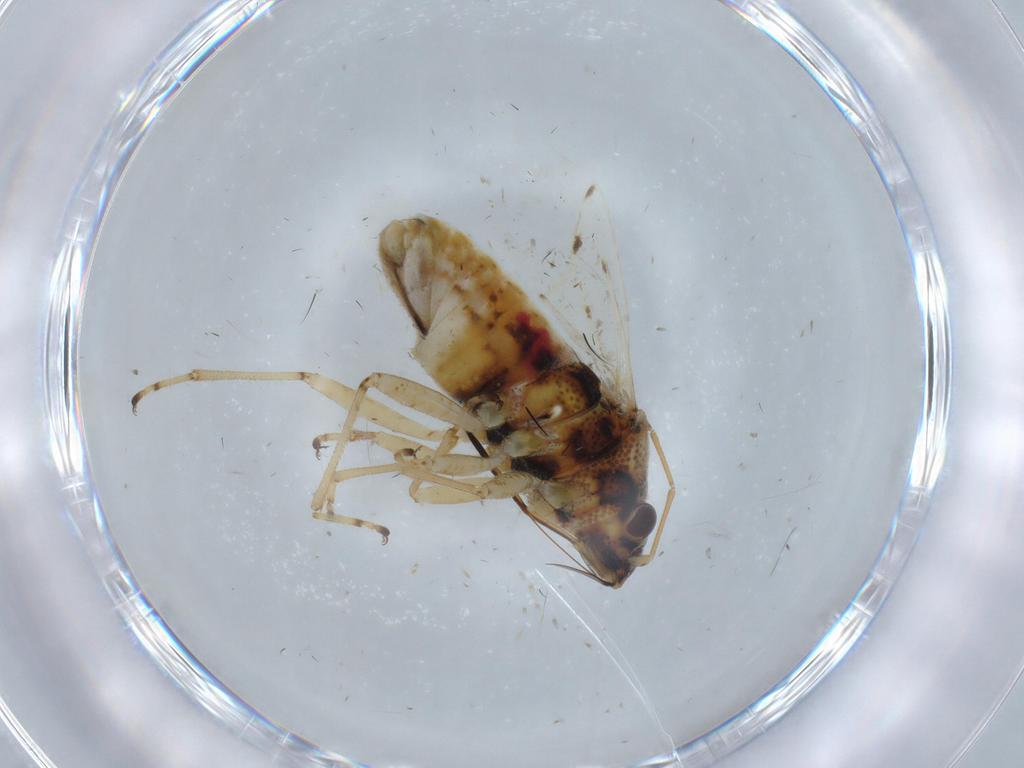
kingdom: Animalia
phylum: Arthropoda
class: Insecta
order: Hemiptera
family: Lygaeidae
